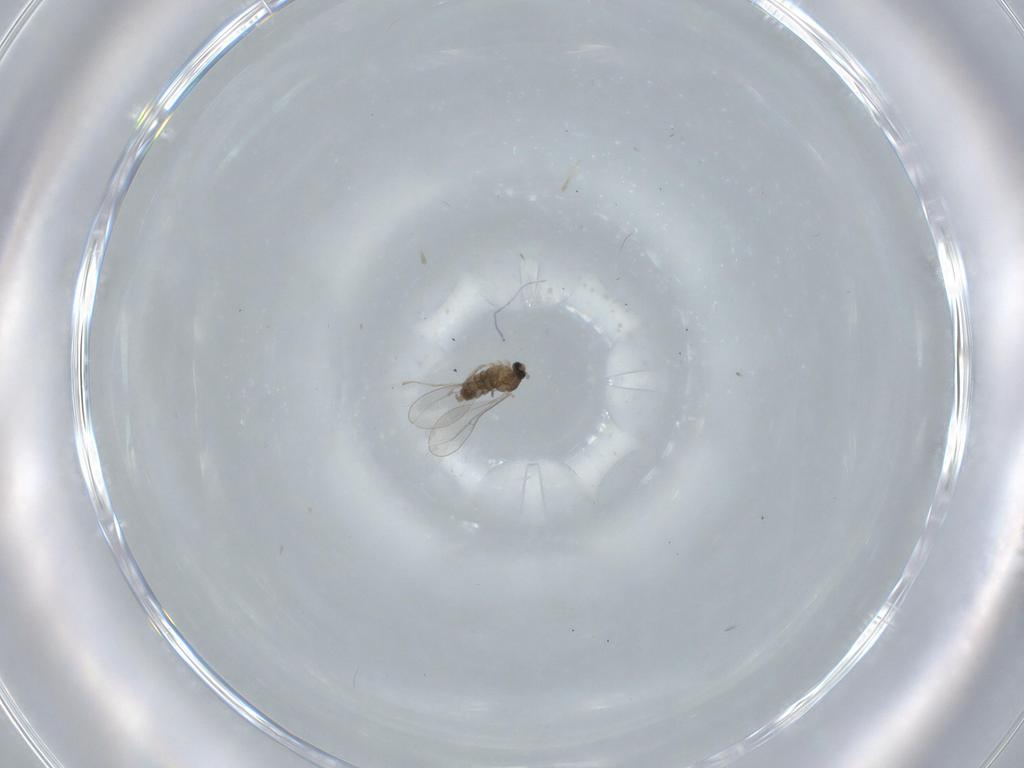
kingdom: Animalia
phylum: Arthropoda
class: Insecta
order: Diptera
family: Cecidomyiidae
